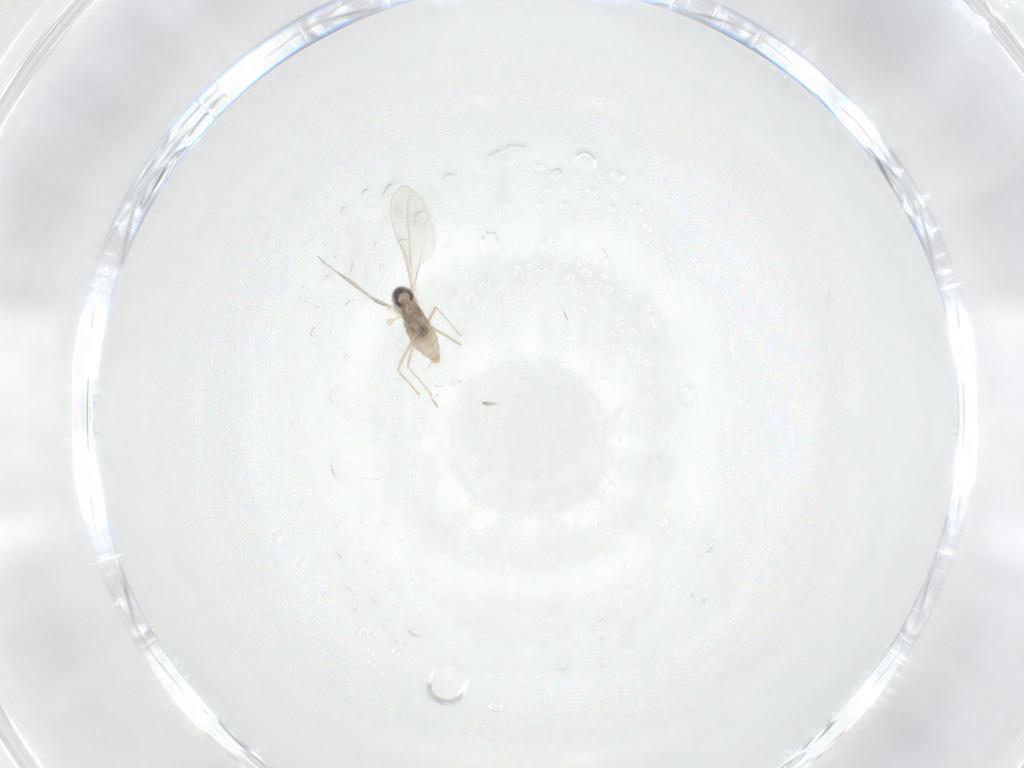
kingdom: Animalia
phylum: Arthropoda
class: Insecta
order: Diptera
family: Cecidomyiidae
